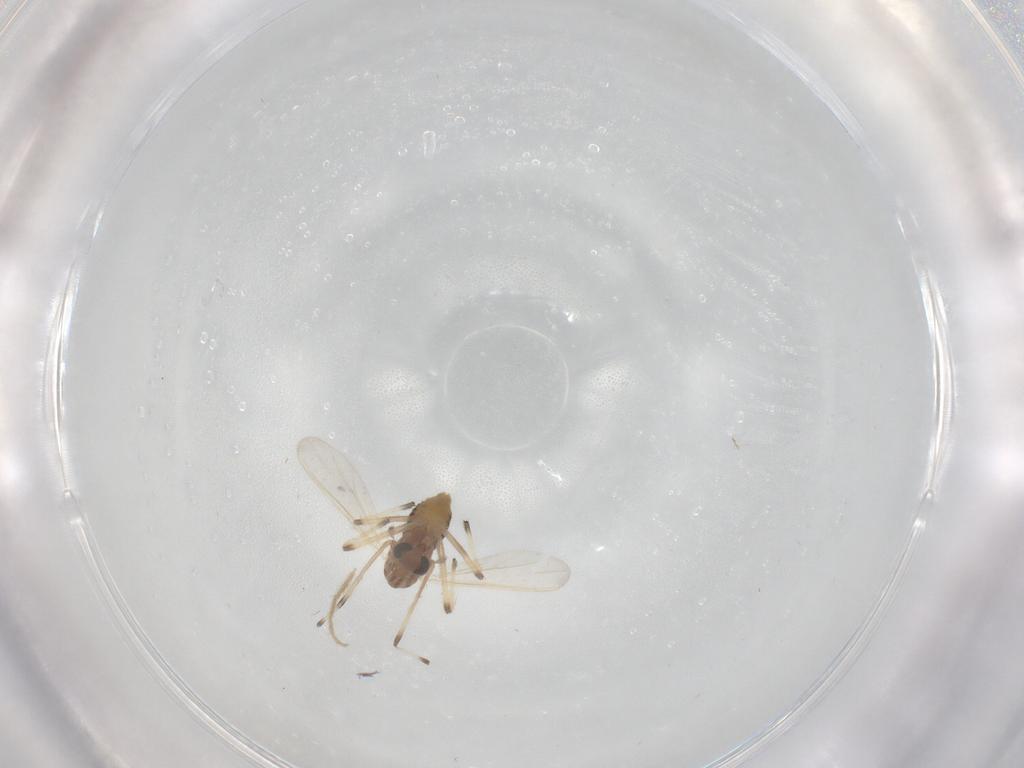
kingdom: Animalia
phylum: Arthropoda
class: Insecta
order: Diptera
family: Chironomidae
